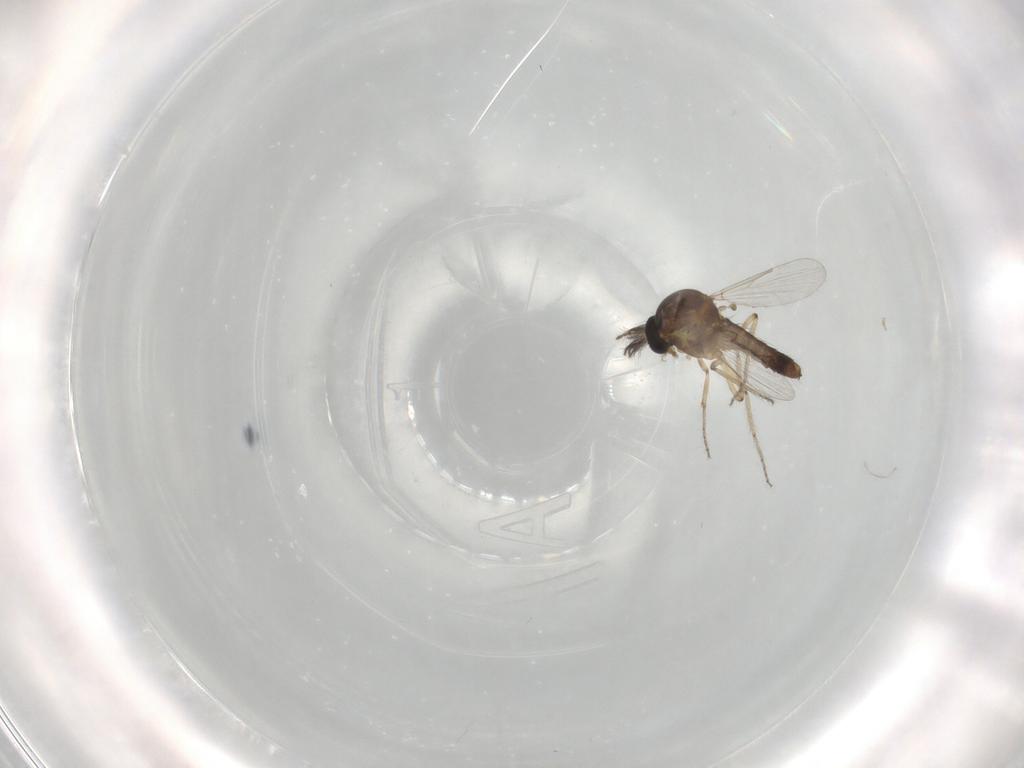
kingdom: Animalia
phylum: Arthropoda
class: Insecta
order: Diptera
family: Ceratopogonidae
